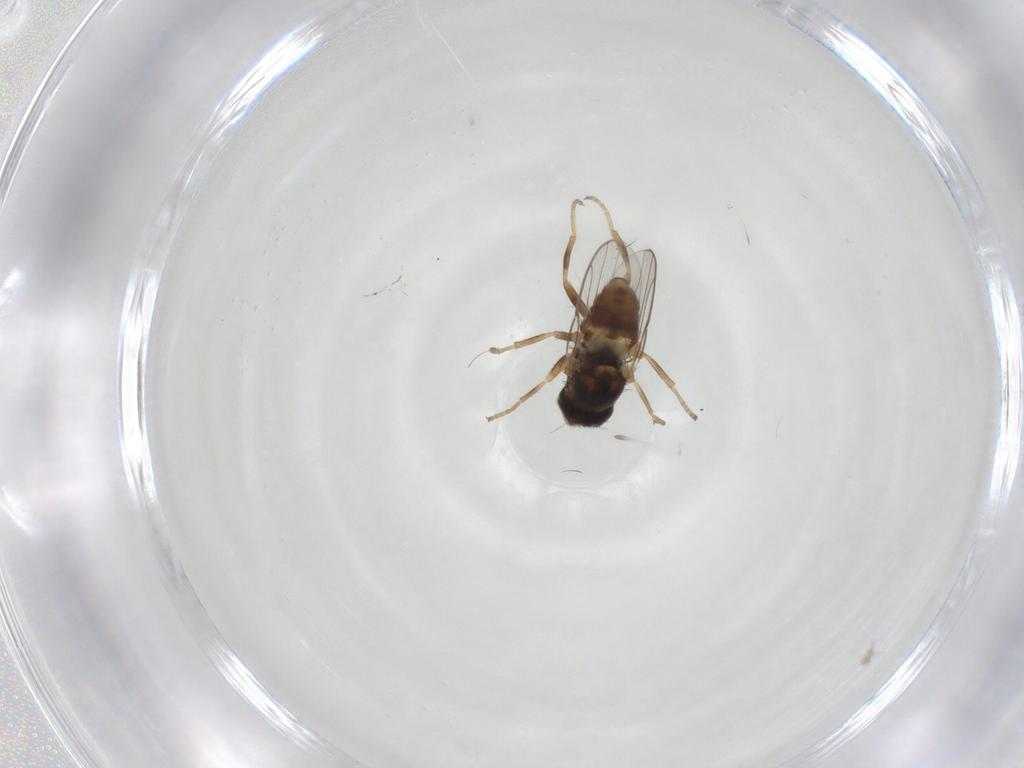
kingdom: Animalia
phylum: Arthropoda
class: Insecta
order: Diptera
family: Chloropidae
